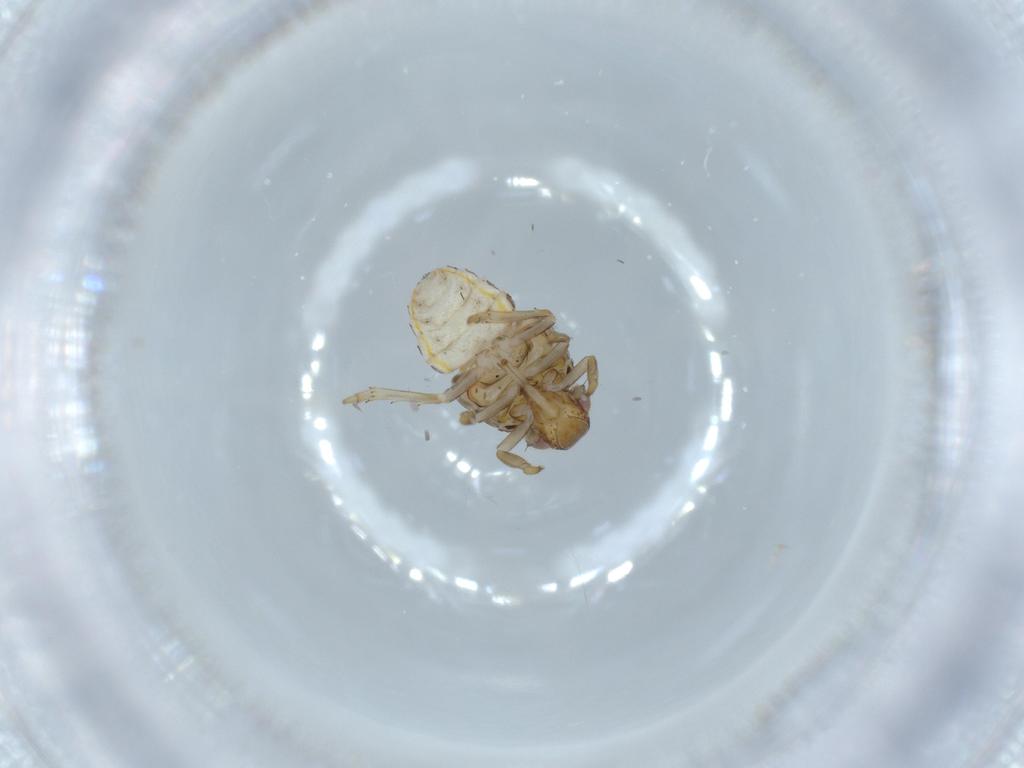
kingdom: Animalia
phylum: Arthropoda
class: Insecta
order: Hemiptera
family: Issidae
